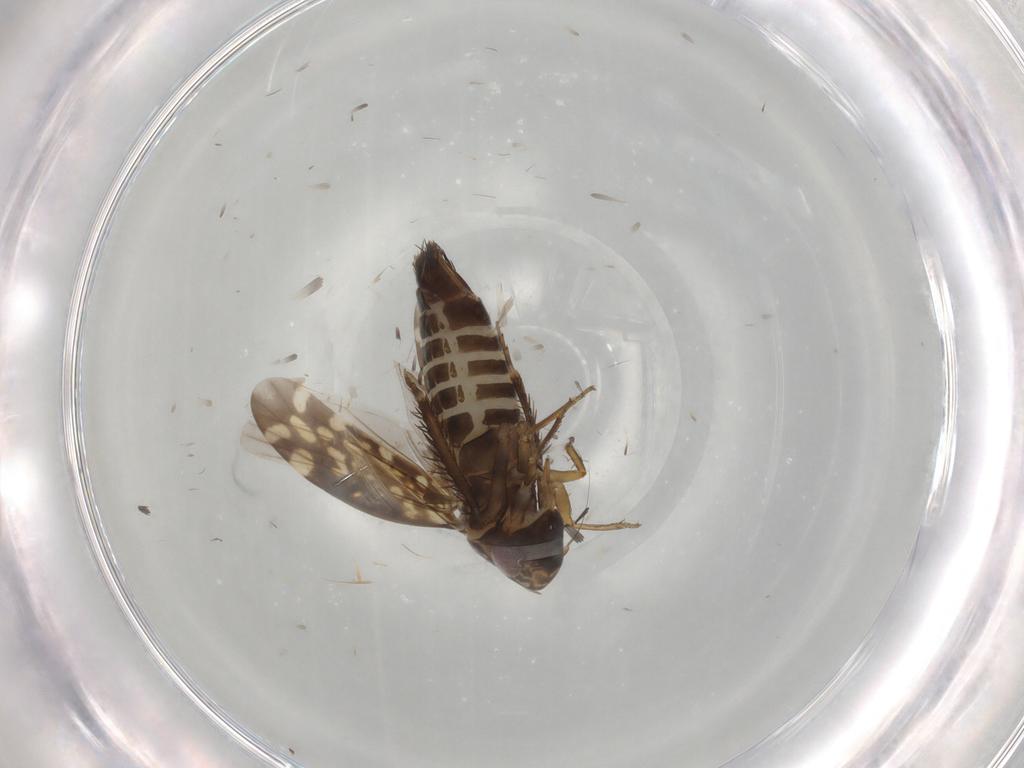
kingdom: Animalia
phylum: Arthropoda
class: Insecta
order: Hemiptera
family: Cicadellidae
